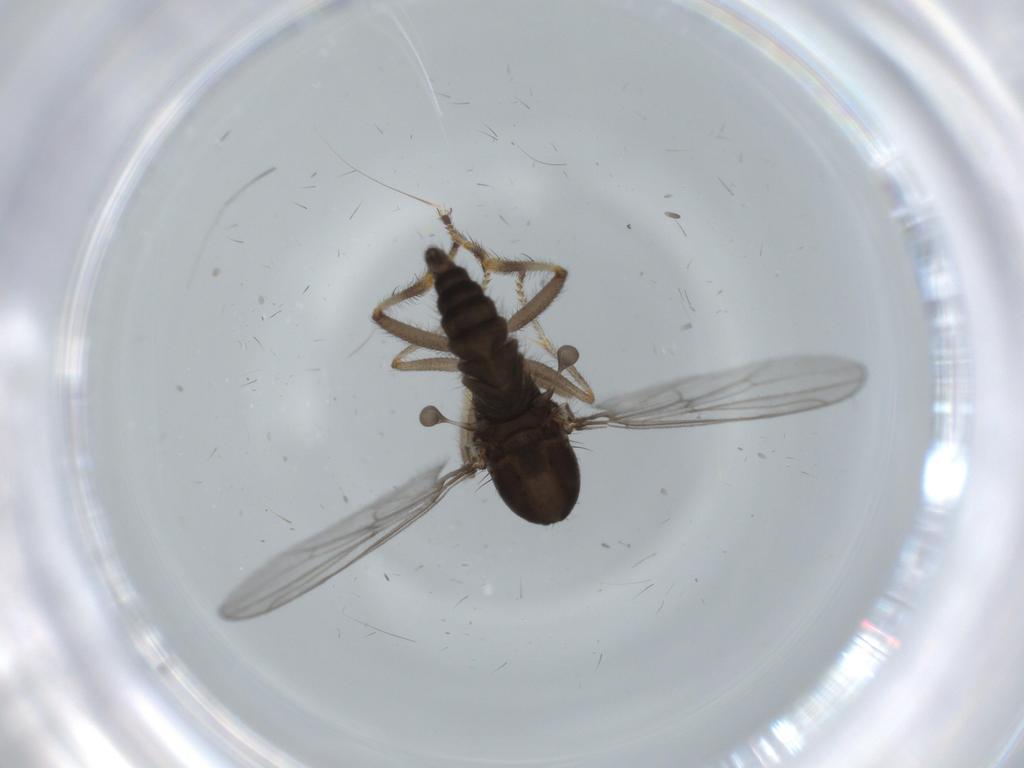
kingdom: Animalia
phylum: Arthropoda
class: Insecta
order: Diptera
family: Hybotidae
